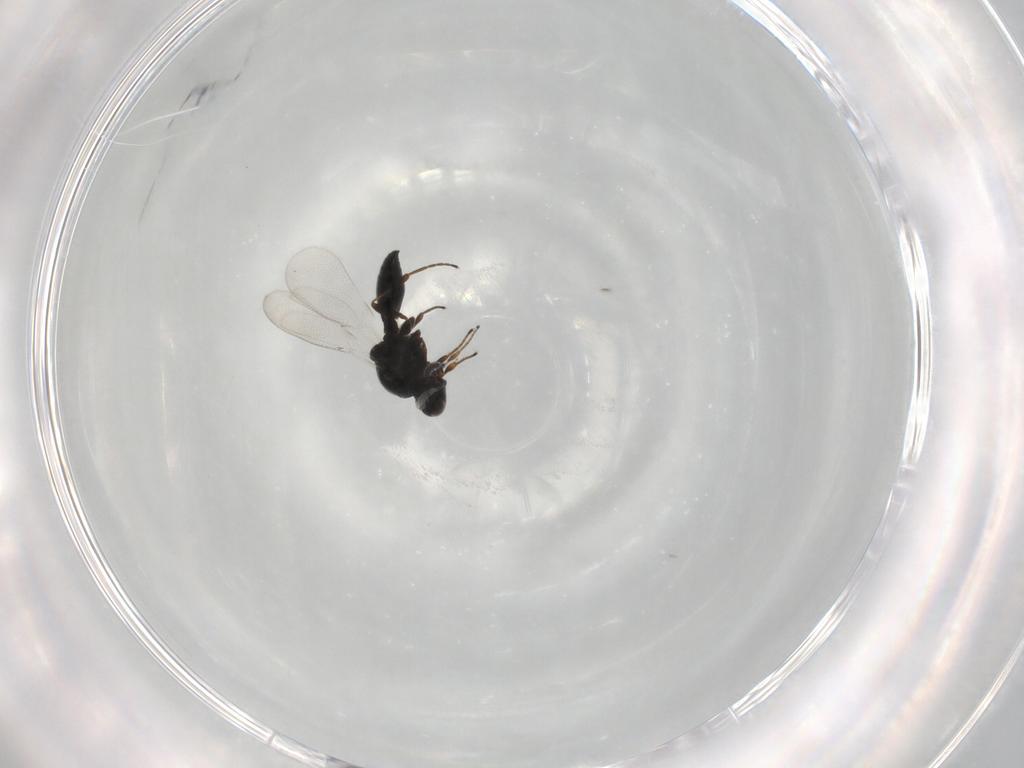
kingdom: Animalia
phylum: Arthropoda
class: Insecta
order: Hymenoptera
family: Platygastridae
